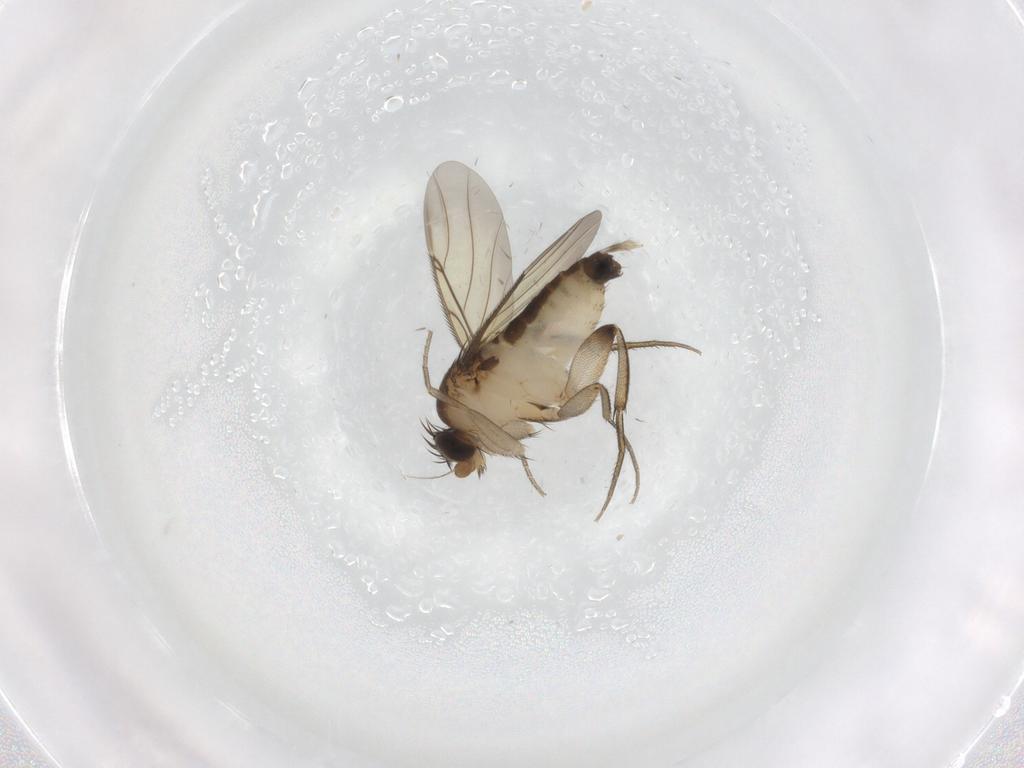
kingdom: Animalia
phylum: Arthropoda
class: Insecta
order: Diptera
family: Phoridae
